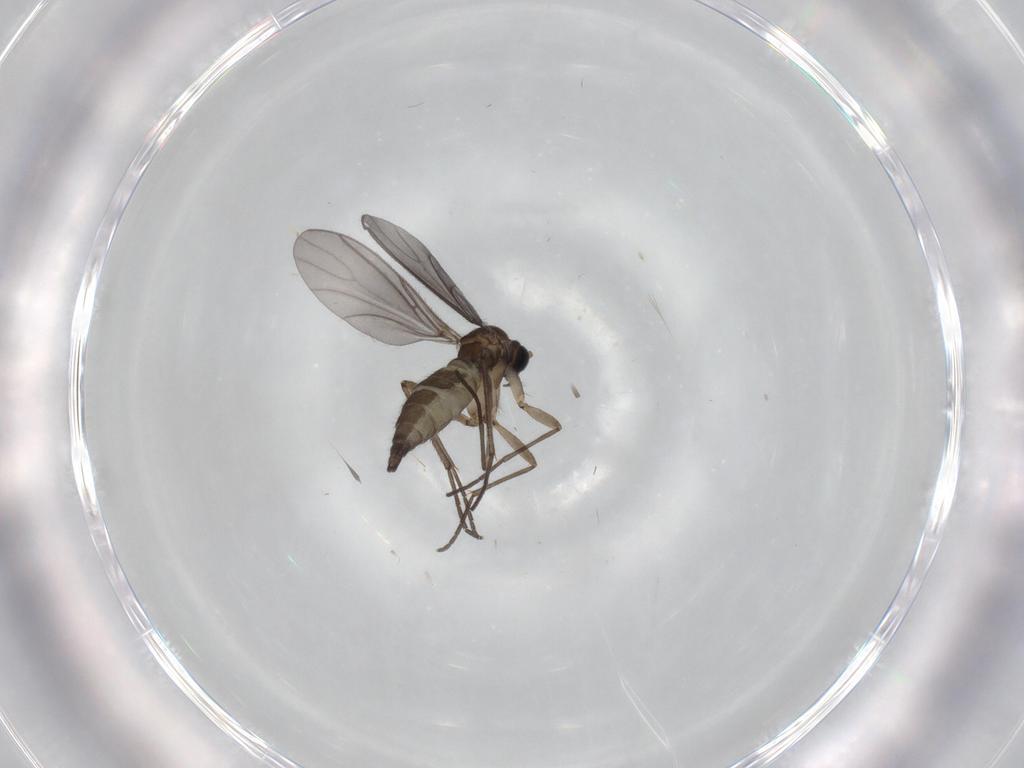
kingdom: Animalia
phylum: Arthropoda
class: Insecta
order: Diptera
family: Sciaridae
